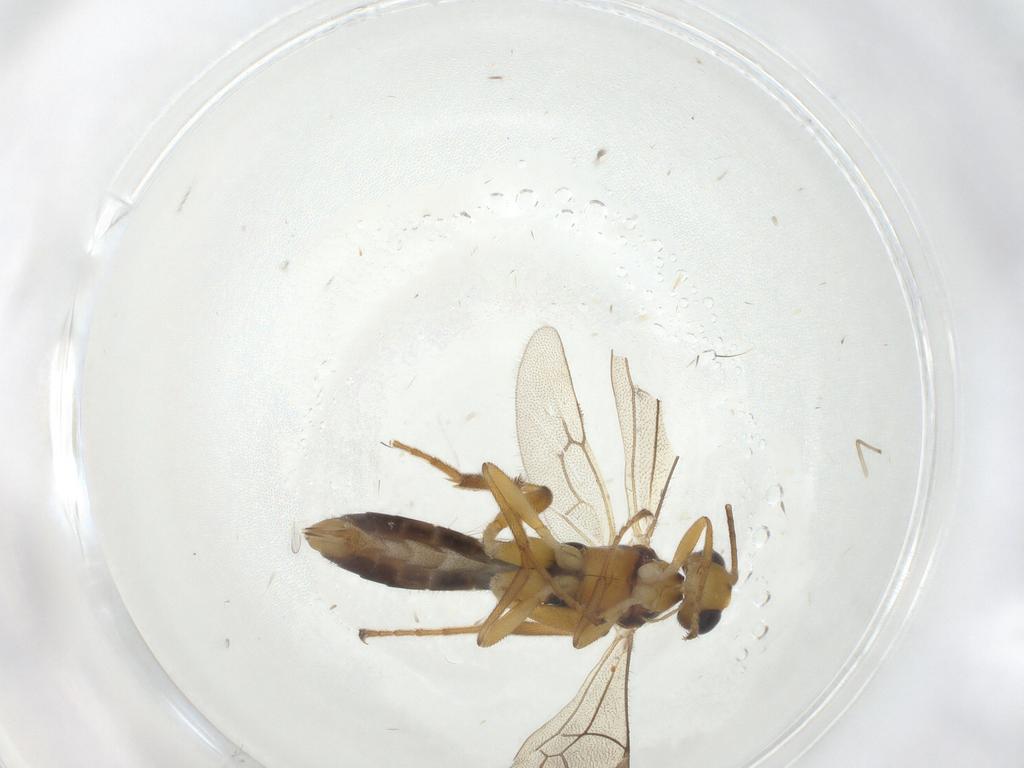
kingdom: Animalia
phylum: Arthropoda
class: Insecta
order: Hymenoptera
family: Ichneumonidae
